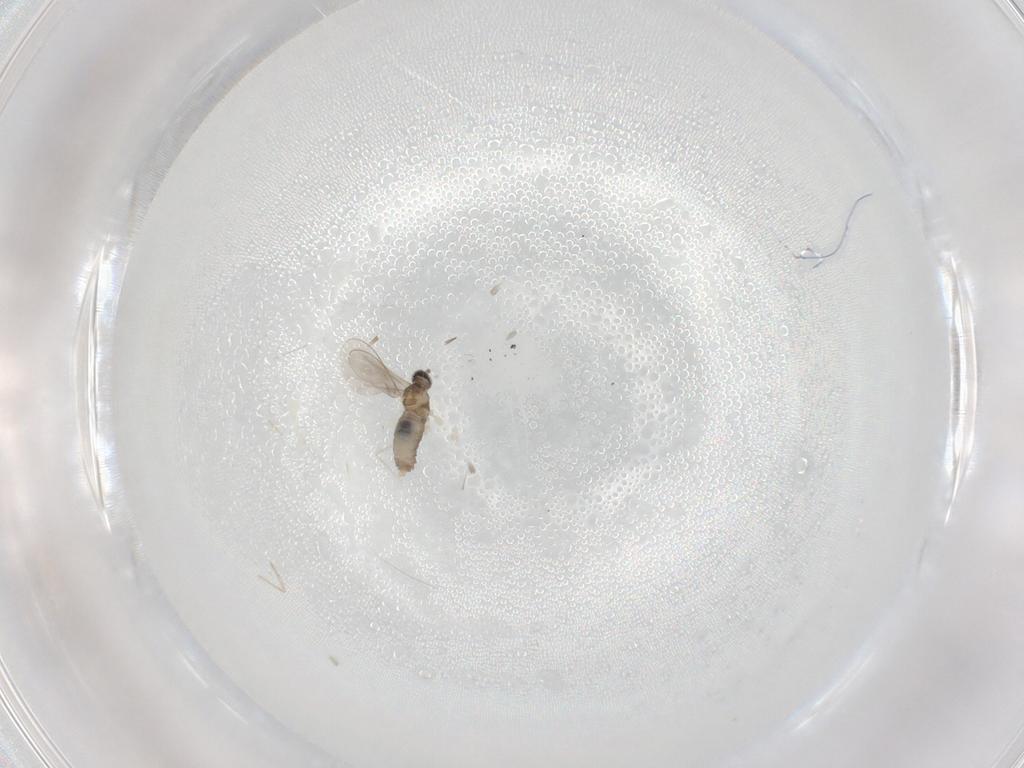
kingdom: Animalia
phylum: Arthropoda
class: Insecta
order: Diptera
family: Cecidomyiidae
